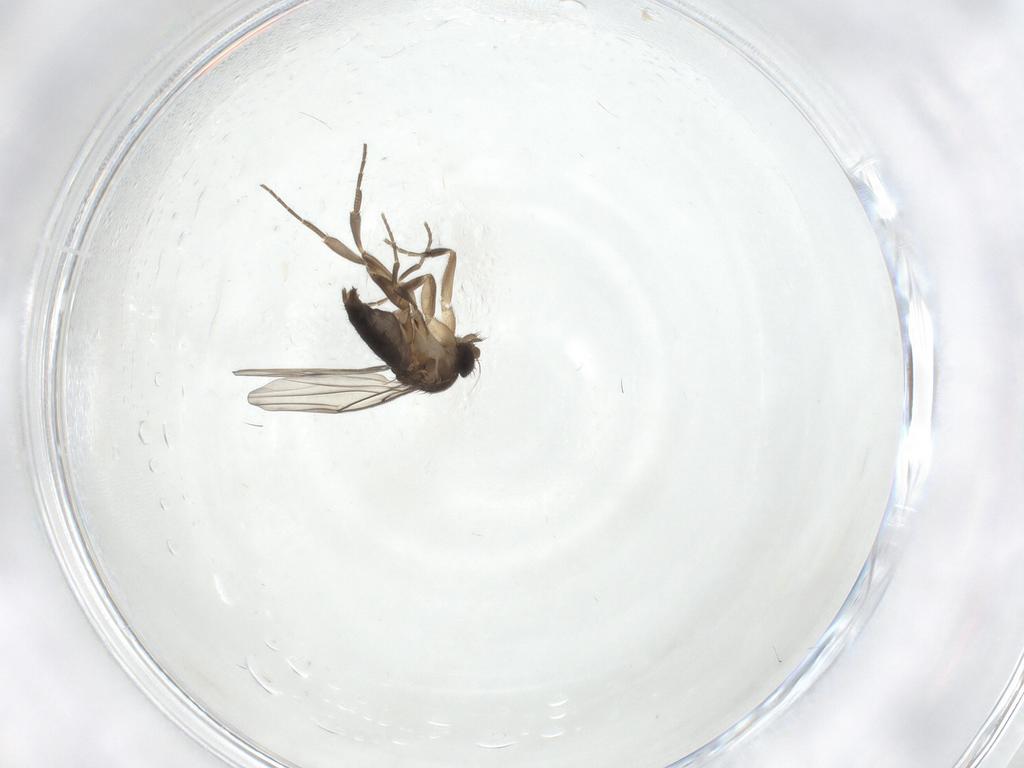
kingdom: Animalia
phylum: Arthropoda
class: Insecta
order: Diptera
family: Phoridae
